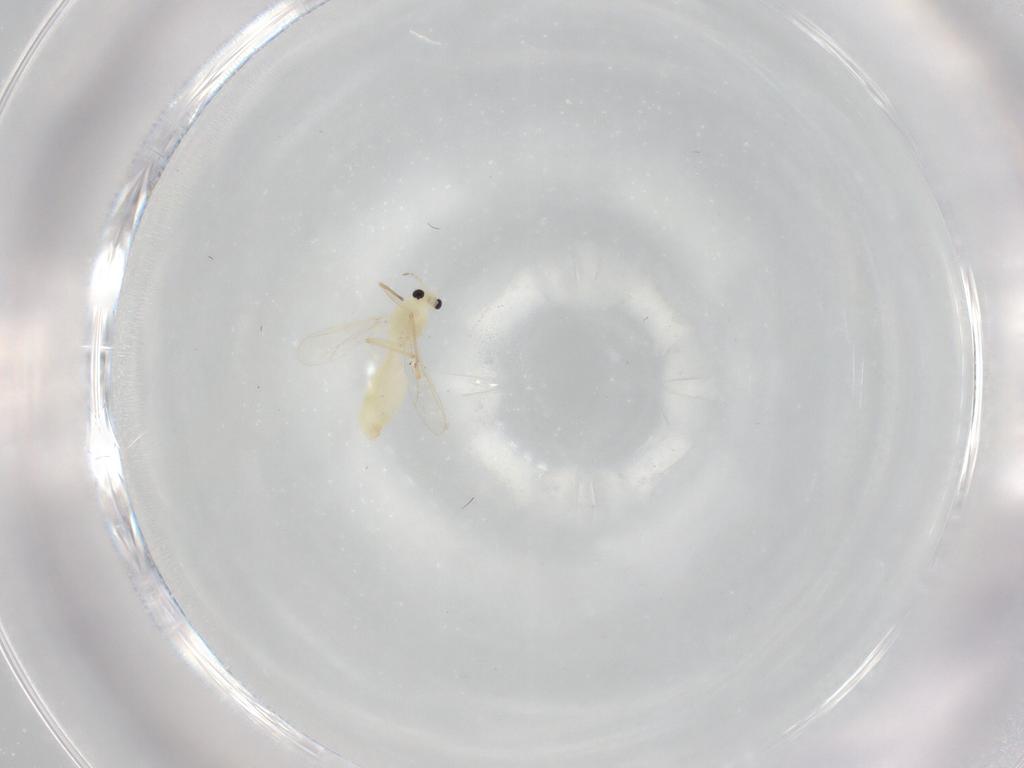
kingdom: Animalia
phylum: Arthropoda
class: Insecta
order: Diptera
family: Chironomidae
